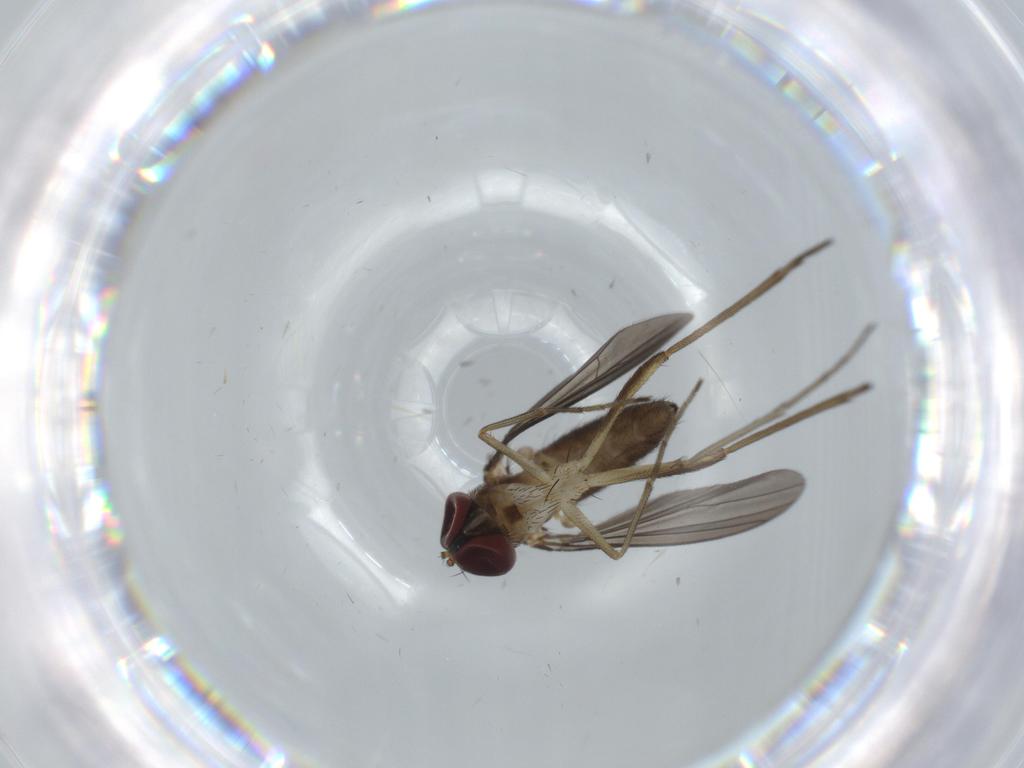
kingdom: Animalia
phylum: Arthropoda
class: Insecta
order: Diptera
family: Dolichopodidae
